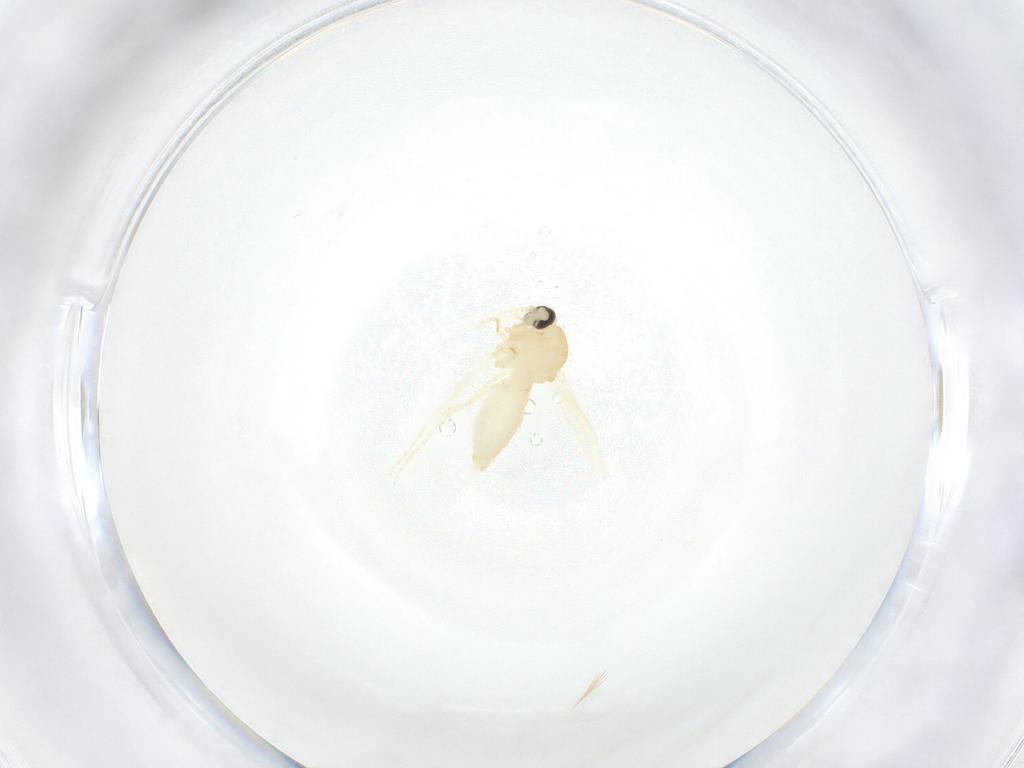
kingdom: Animalia
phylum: Arthropoda
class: Insecta
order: Diptera
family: Ceratopogonidae
